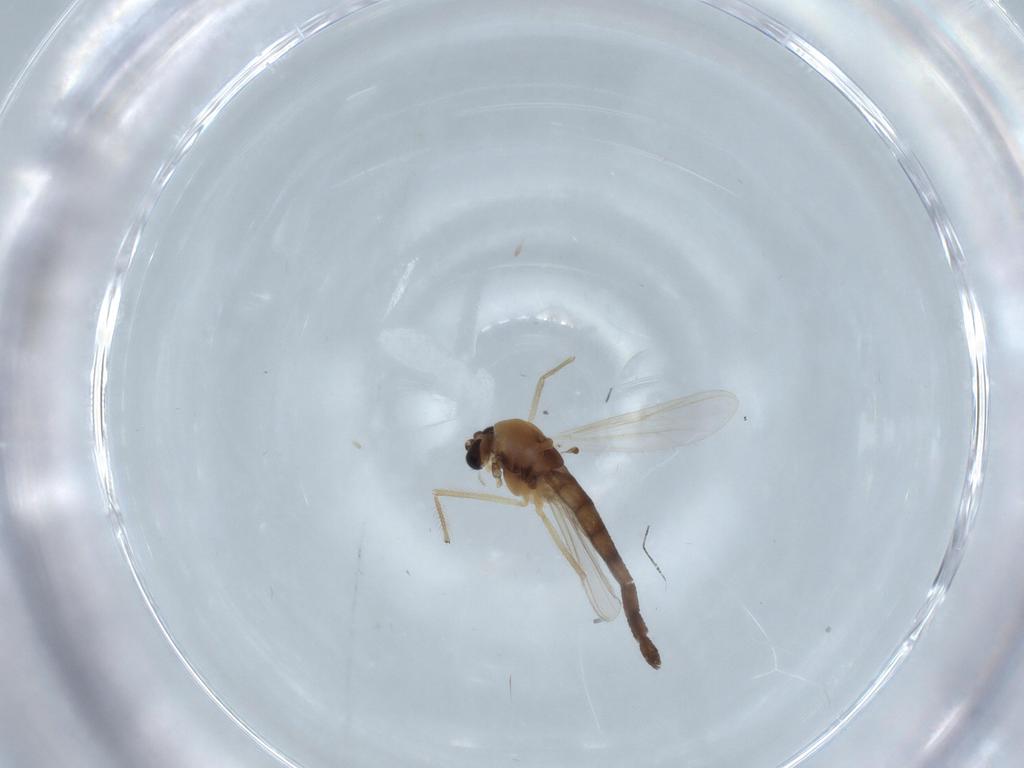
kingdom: Animalia
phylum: Arthropoda
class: Insecta
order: Diptera
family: Chironomidae
